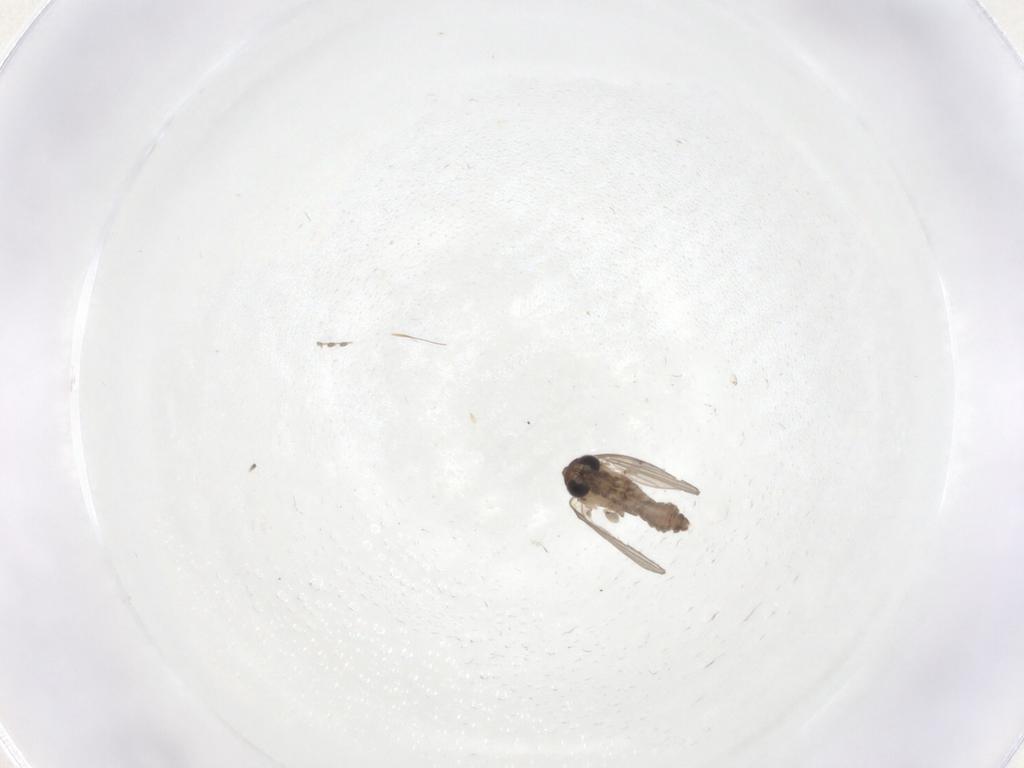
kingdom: Animalia
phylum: Arthropoda
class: Insecta
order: Diptera
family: Psychodidae
